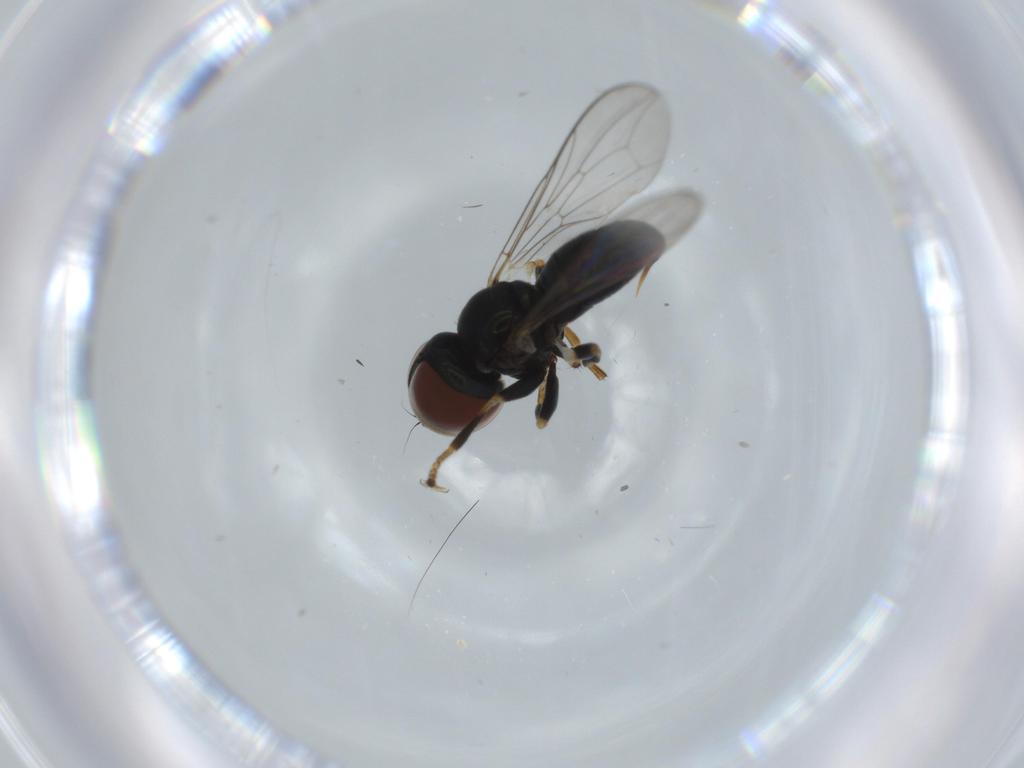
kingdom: Animalia
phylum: Arthropoda
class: Insecta
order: Diptera
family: Pipunculidae
